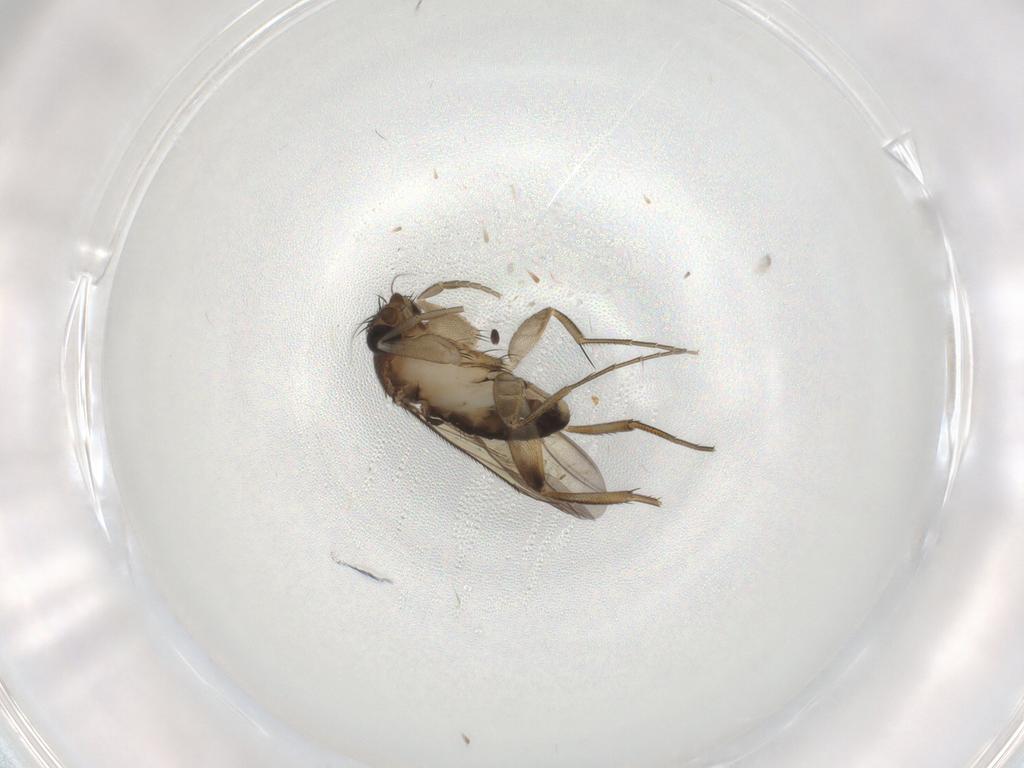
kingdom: Animalia
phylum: Arthropoda
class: Insecta
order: Diptera
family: Phoridae
